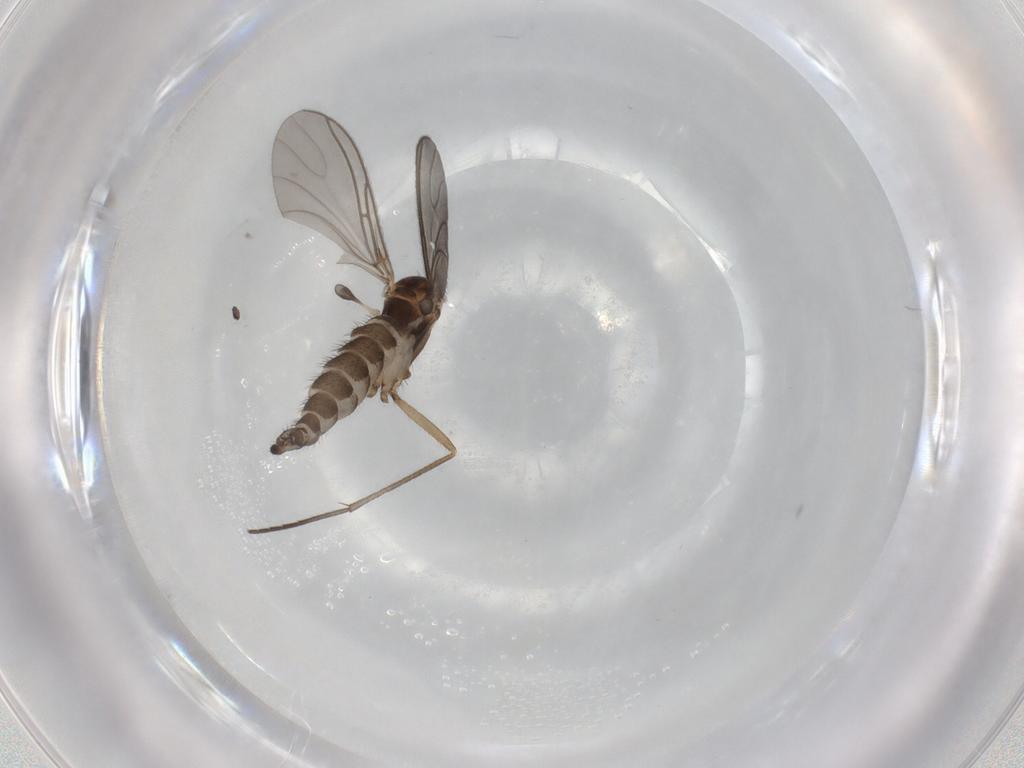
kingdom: Animalia
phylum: Arthropoda
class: Insecta
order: Diptera
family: Sciaridae
